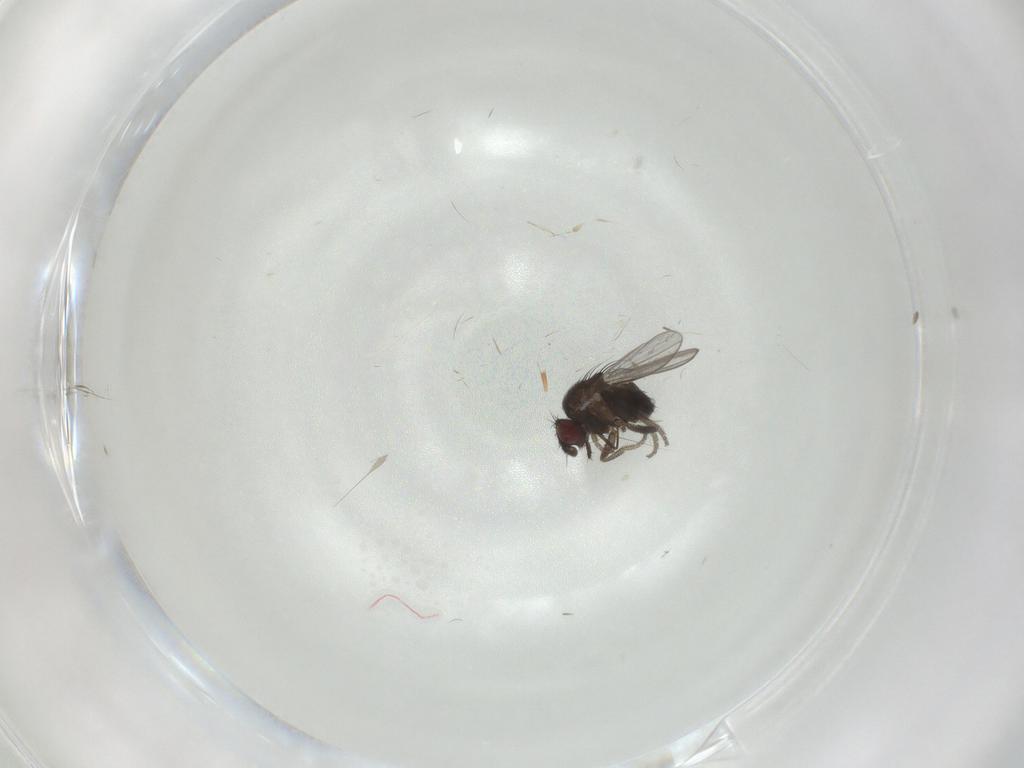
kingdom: Animalia
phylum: Arthropoda
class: Insecta
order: Diptera
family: Milichiidae
